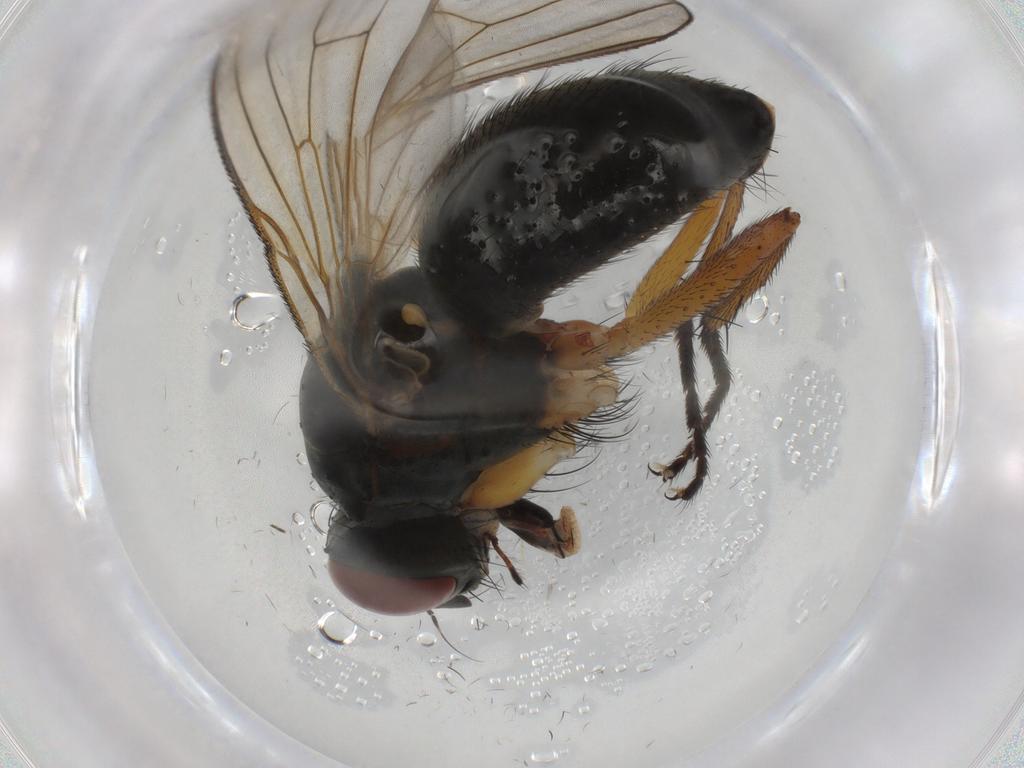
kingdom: Animalia
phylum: Arthropoda
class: Insecta
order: Diptera
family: Muscidae
